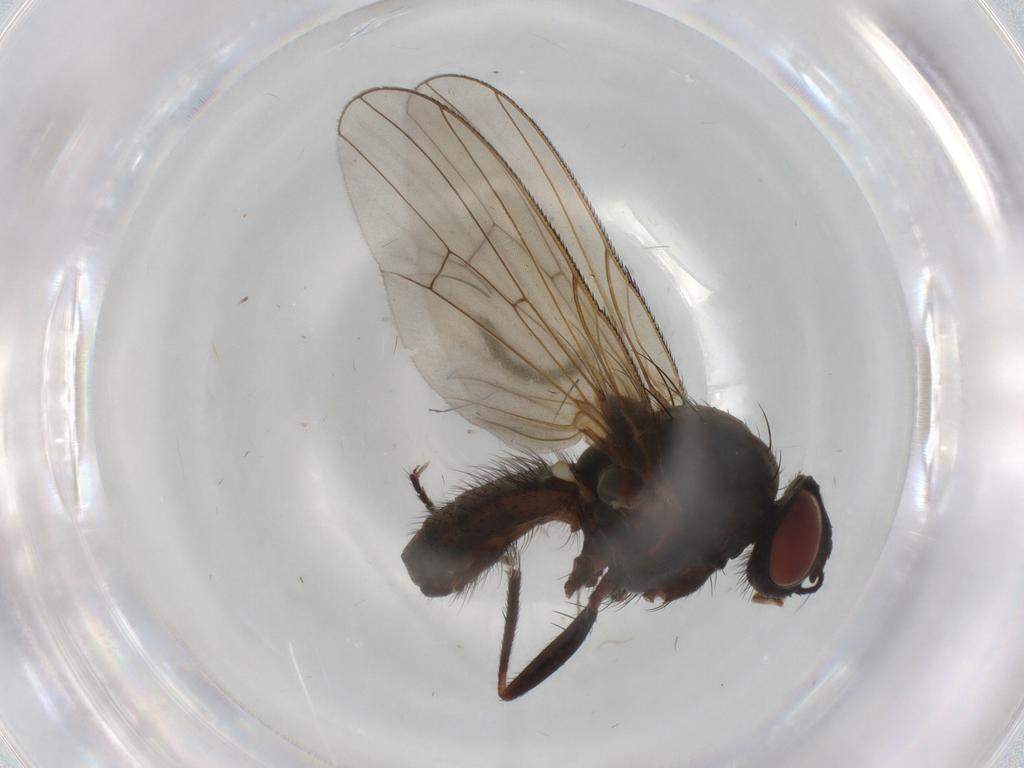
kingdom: Animalia
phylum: Arthropoda
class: Insecta
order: Diptera
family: Anthomyiidae
